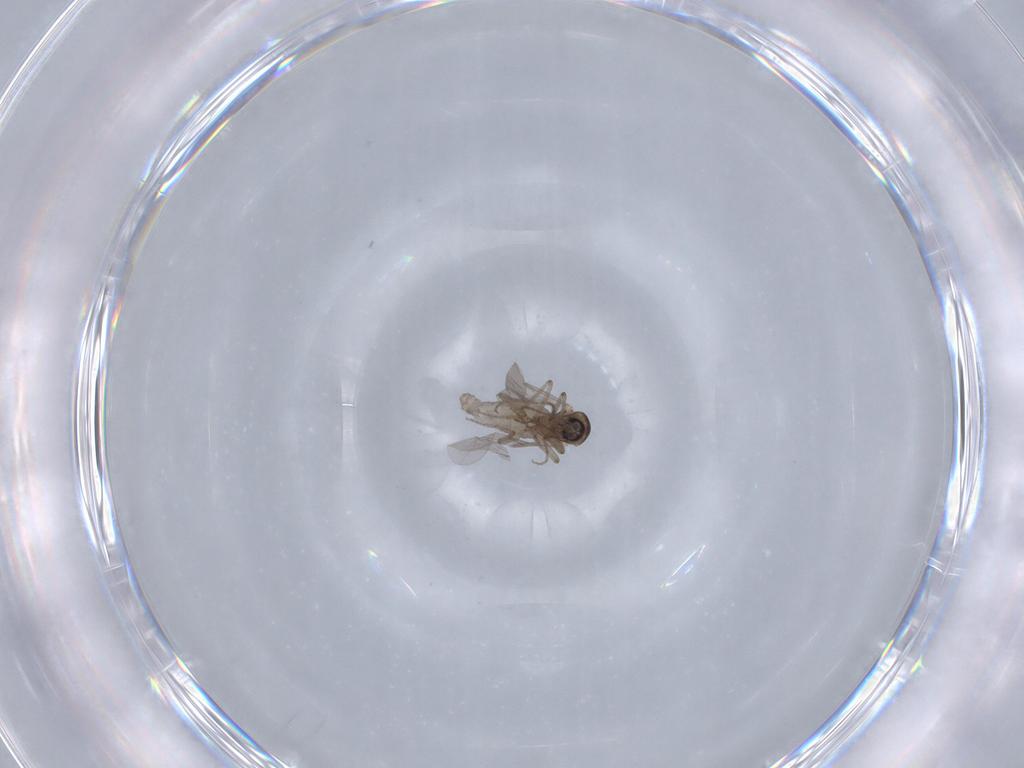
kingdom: Animalia
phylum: Arthropoda
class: Insecta
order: Diptera
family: Ceratopogonidae
